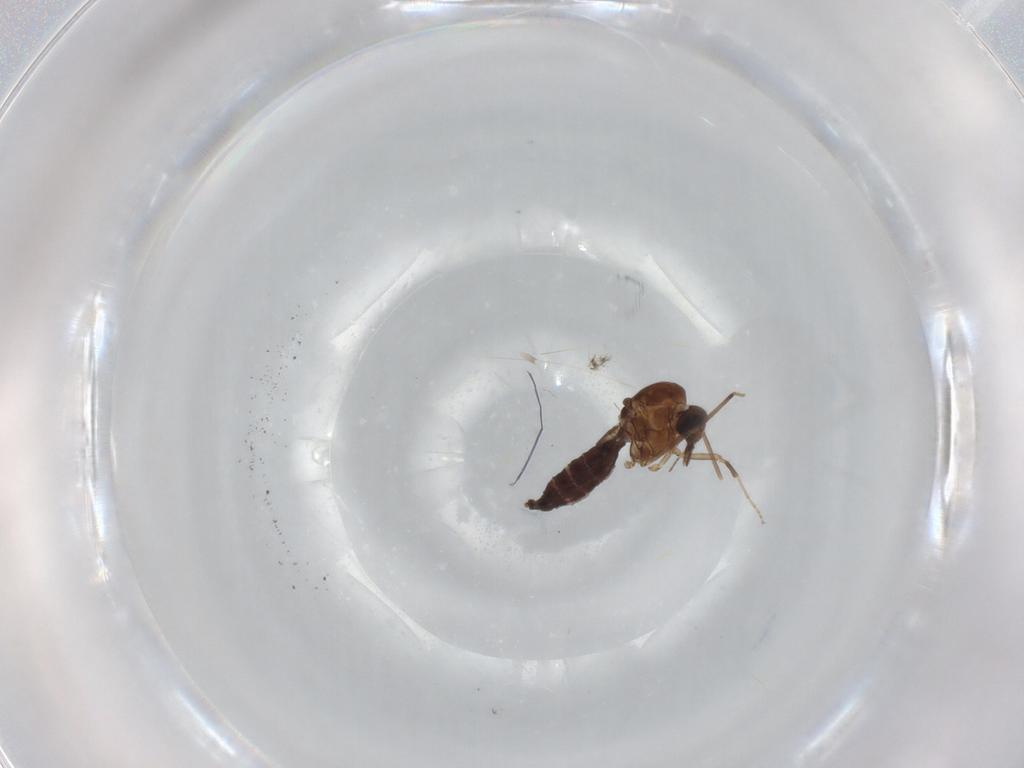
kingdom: Animalia
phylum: Arthropoda
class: Insecta
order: Diptera
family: Ceratopogonidae
